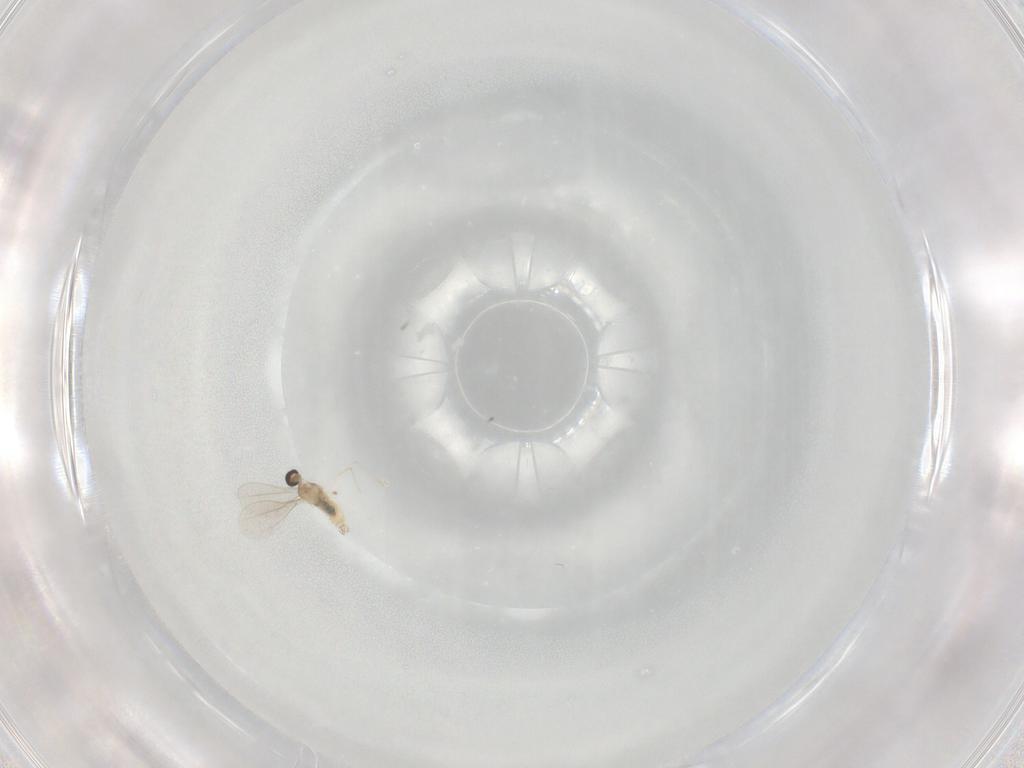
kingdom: Animalia
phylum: Arthropoda
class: Insecta
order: Diptera
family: Cecidomyiidae
